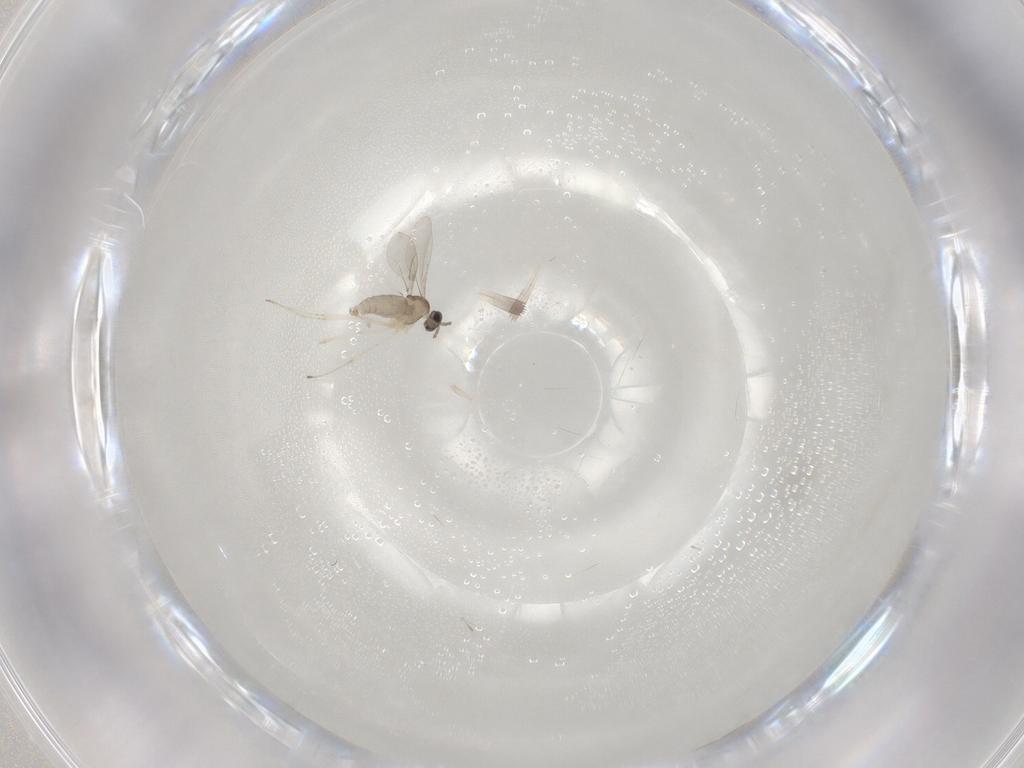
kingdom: Animalia
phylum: Arthropoda
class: Insecta
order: Diptera
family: Cecidomyiidae
